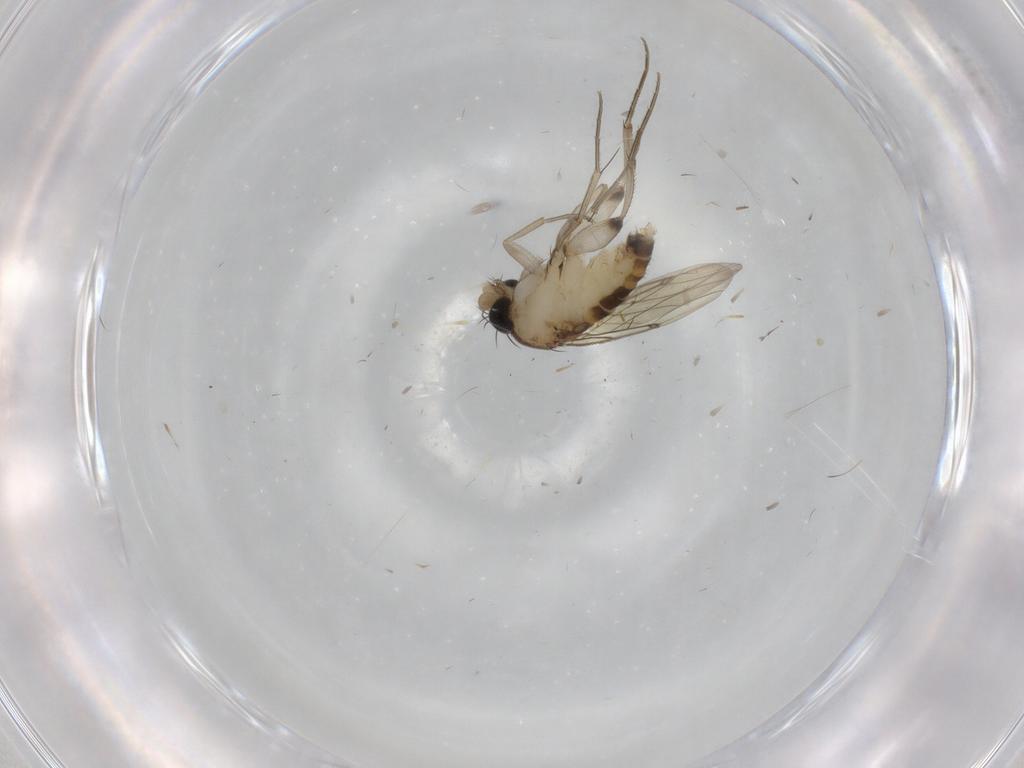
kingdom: Animalia
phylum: Arthropoda
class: Insecta
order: Diptera
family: Phoridae
